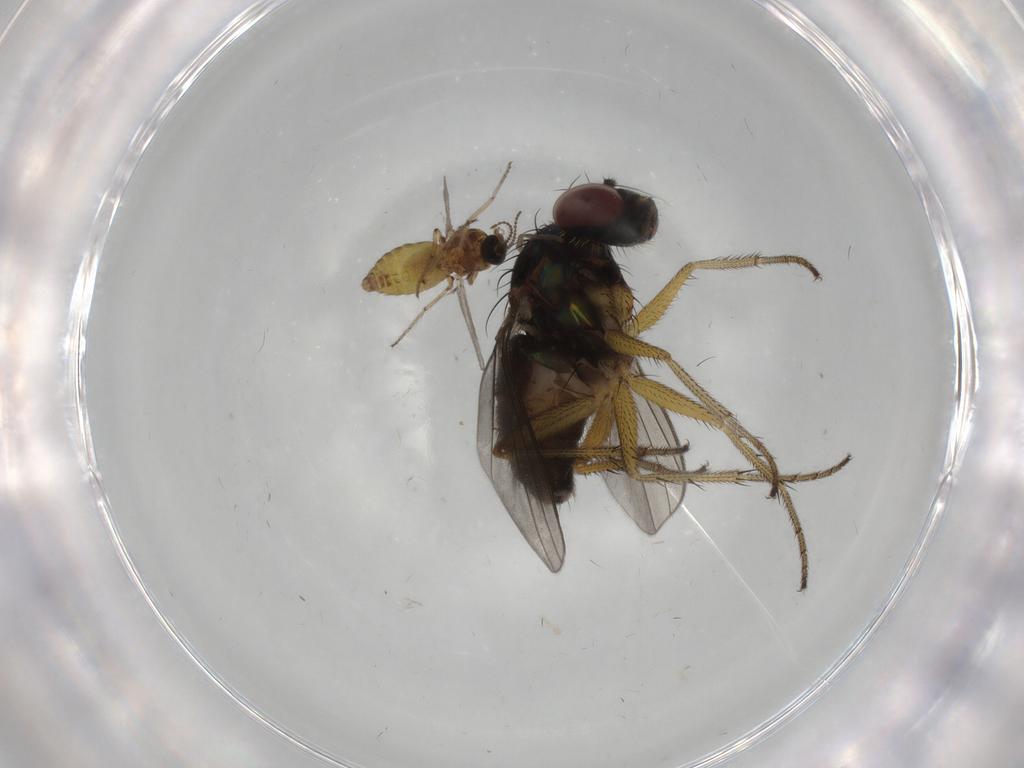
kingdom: Animalia
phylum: Arthropoda
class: Insecta
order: Diptera
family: Dolichopodidae
